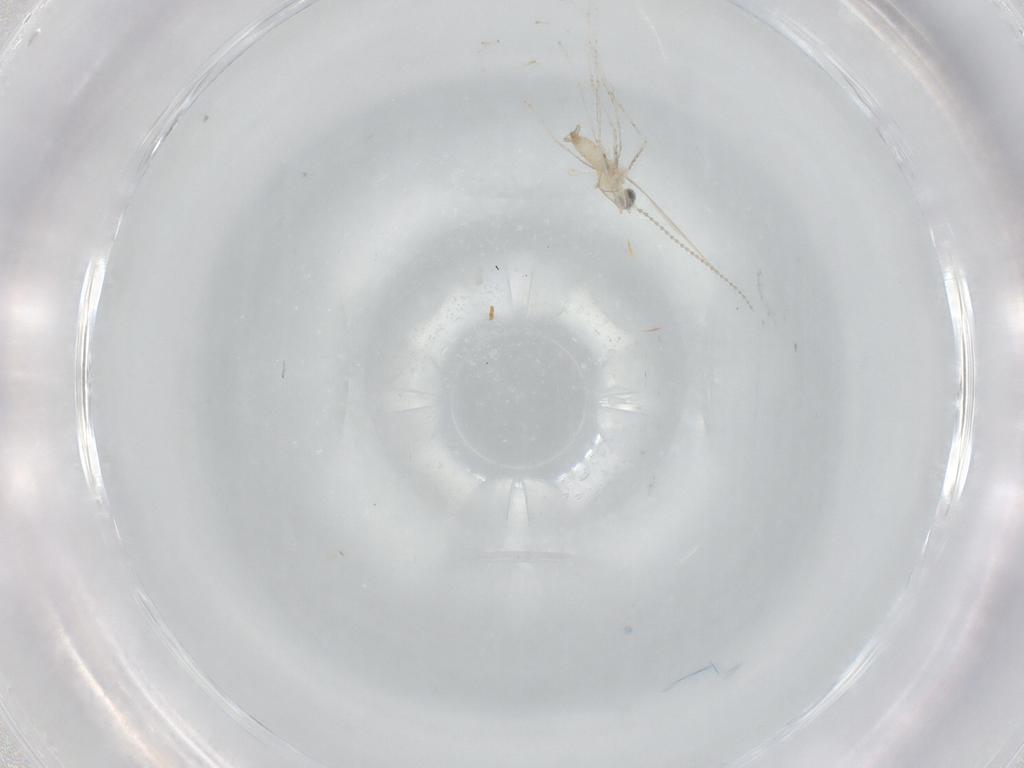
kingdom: Animalia
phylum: Arthropoda
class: Insecta
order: Diptera
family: Cecidomyiidae
